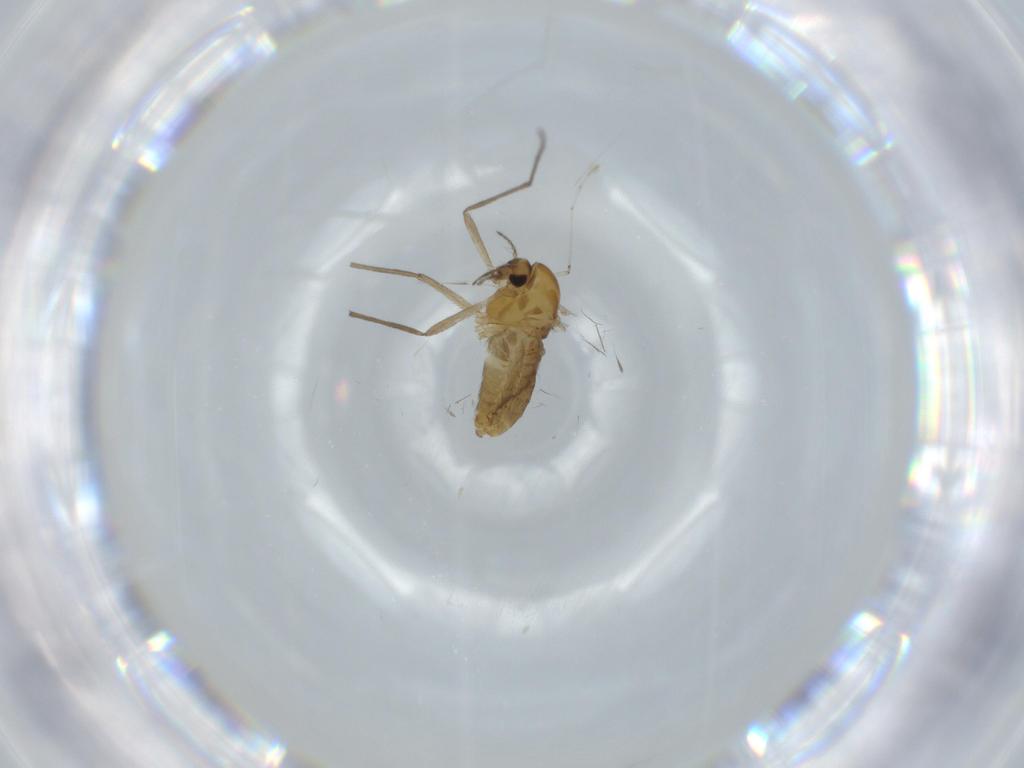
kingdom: Animalia
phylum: Arthropoda
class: Insecta
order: Diptera
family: Chironomidae
